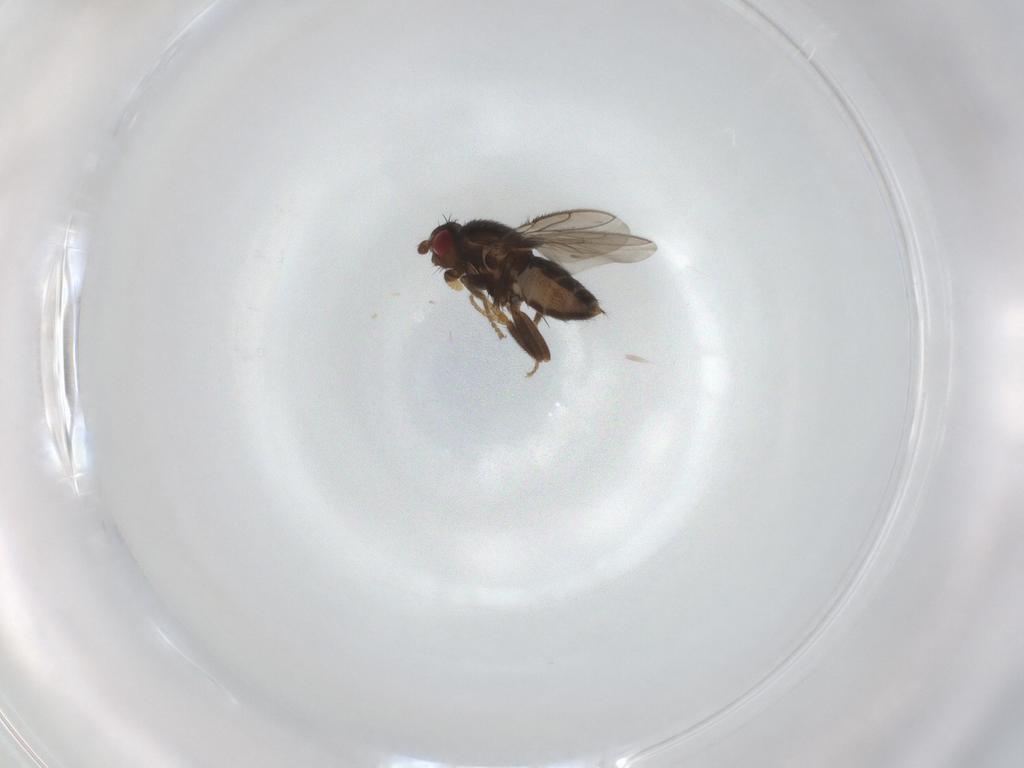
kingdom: Animalia
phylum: Arthropoda
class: Insecta
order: Diptera
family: Sphaeroceridae
